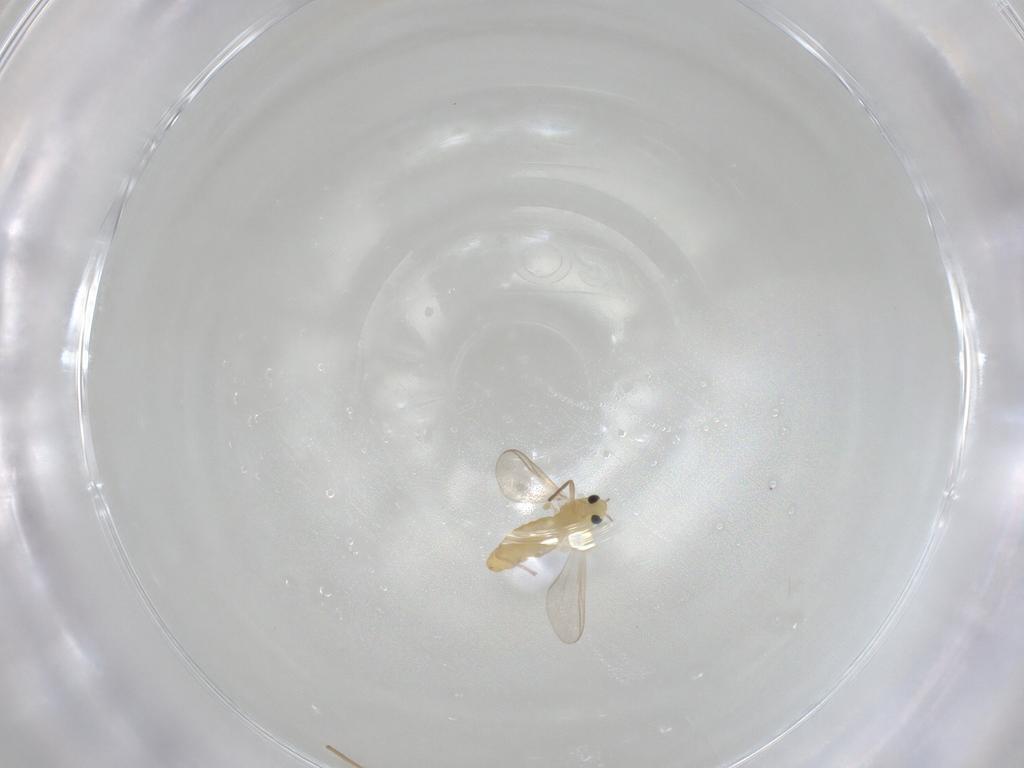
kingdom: Animalia
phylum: Arthropoda
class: Insecta
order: Diptera
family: Chironomidae
